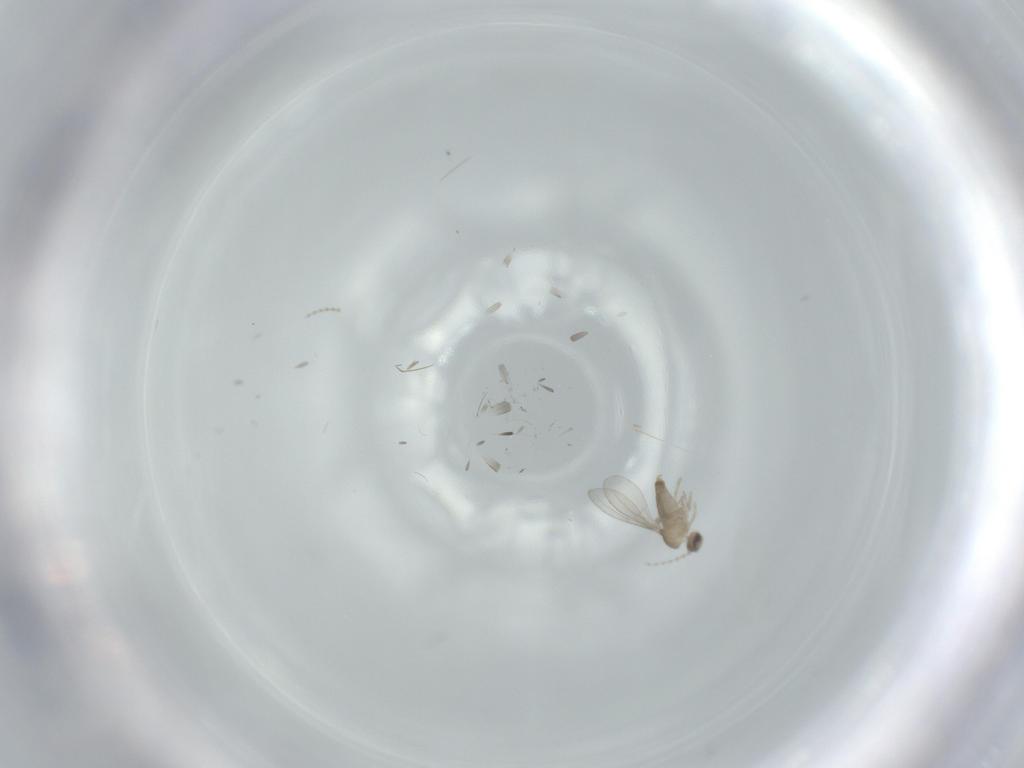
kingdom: Animalia
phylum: Arthropoda
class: Insecta
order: Diptera
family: Cecidomyiidae
